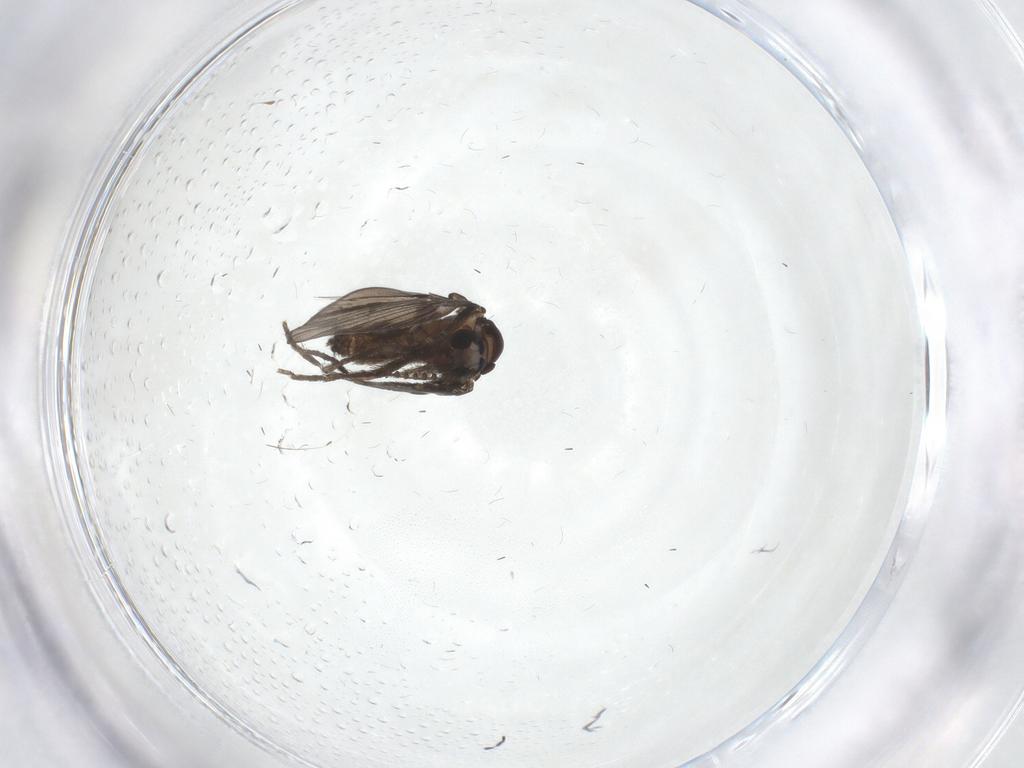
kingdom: Animalia
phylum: Arthropoda
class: Insecta
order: Diptera
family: Psychodidae
